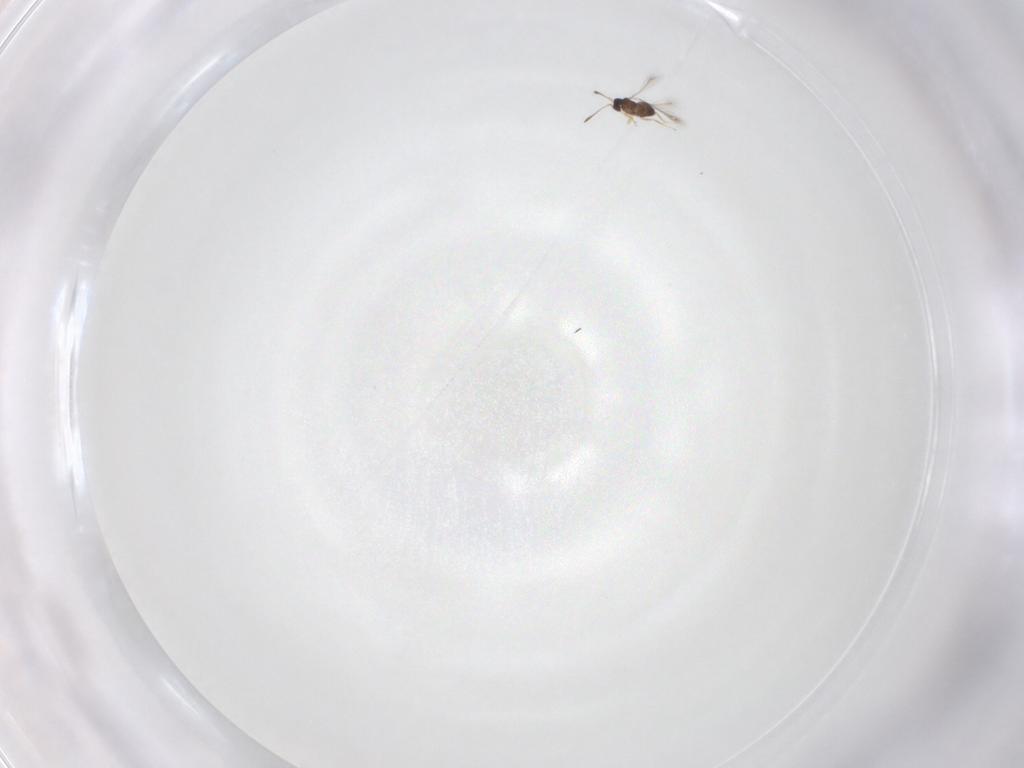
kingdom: Animalia
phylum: Arthropoda
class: Insecta
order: Hymenoptera
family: Mymaridae
